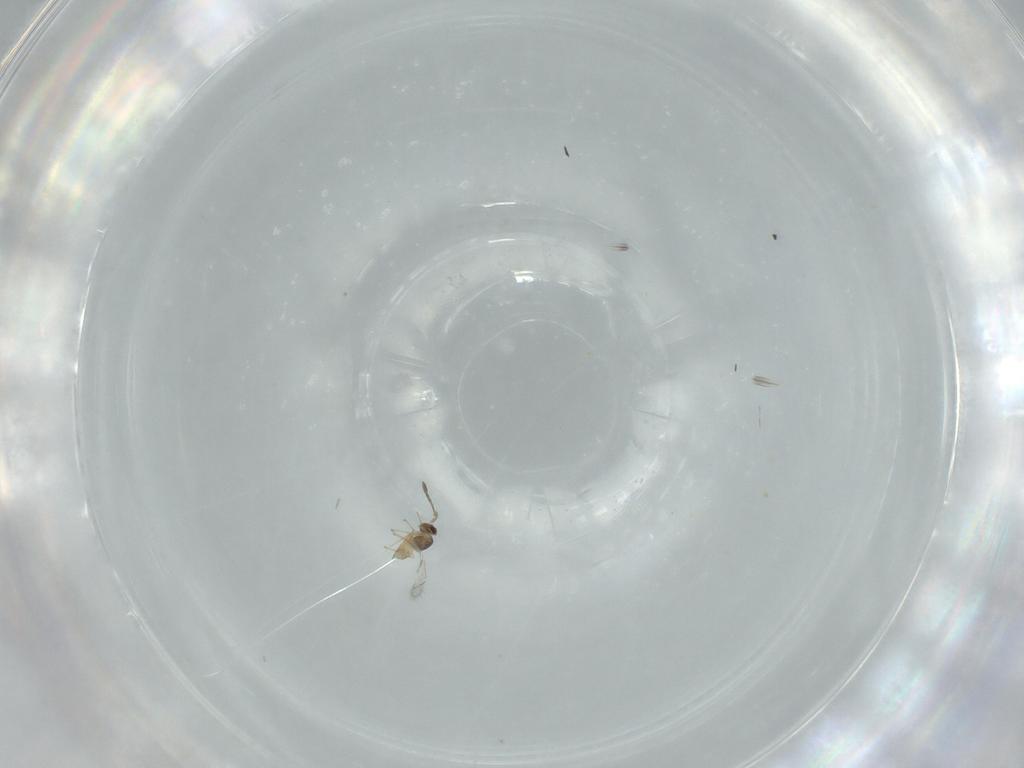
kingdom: Animalia
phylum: Arthropoda
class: Insecta
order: Hymenoptera
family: Mymaridae
